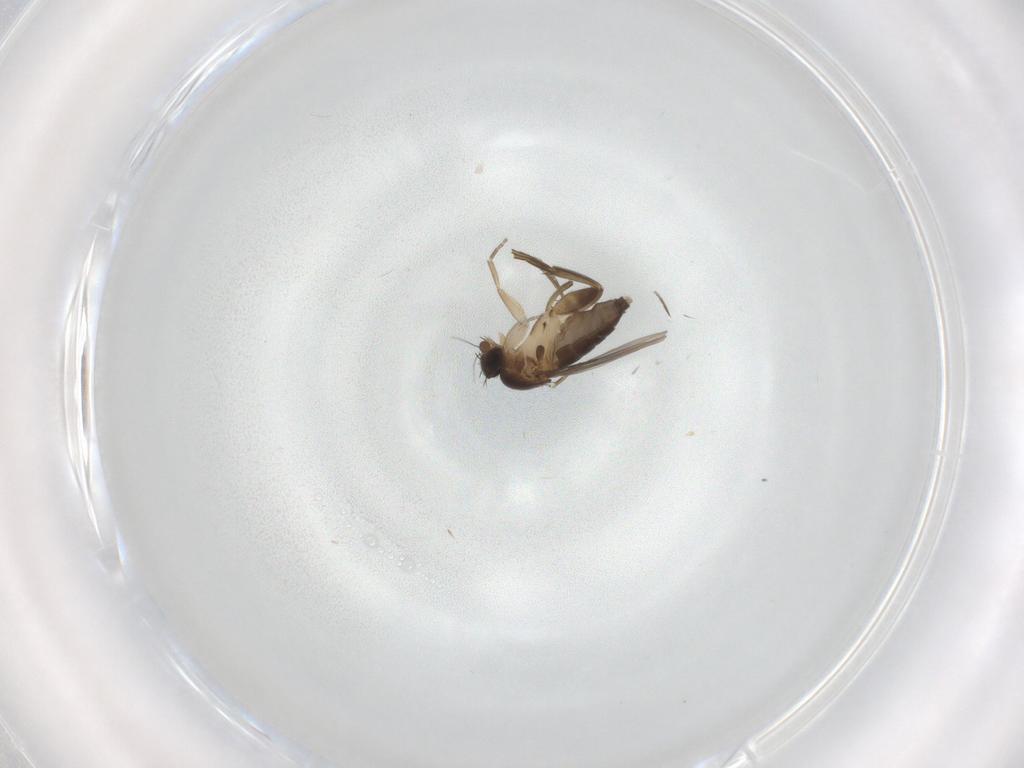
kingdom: Animalia
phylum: Arthropoda
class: Insecta
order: Diptera
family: Phoridae
